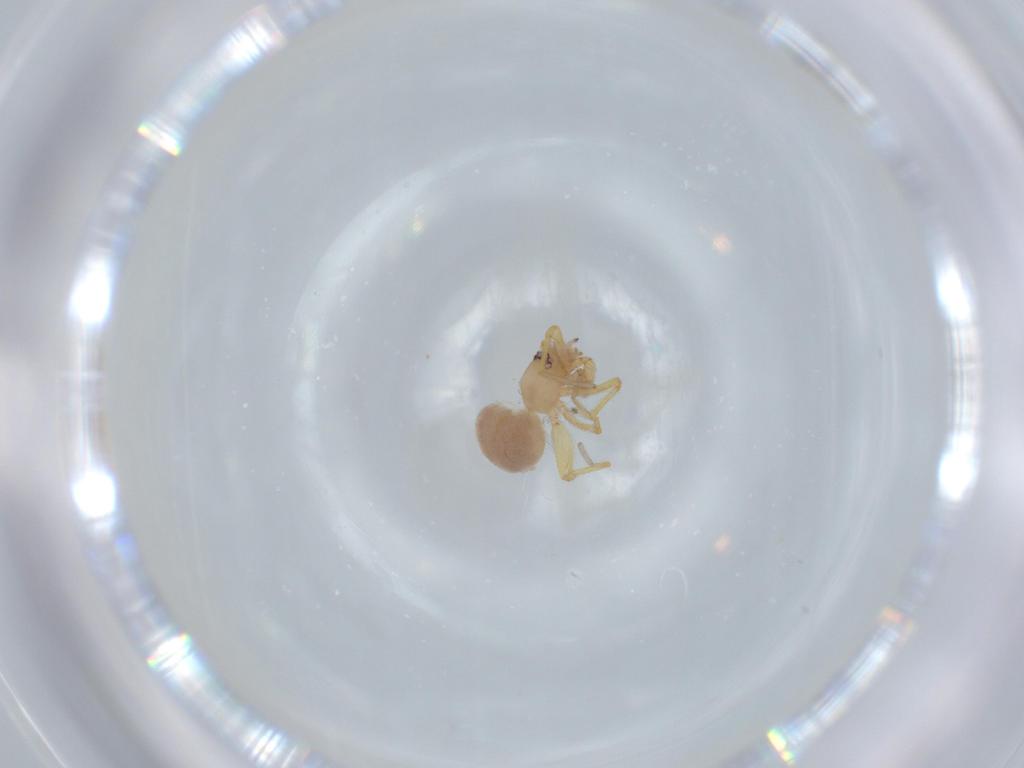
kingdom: Animalia
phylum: Arthropoda
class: Arachnida
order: Araneae
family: Oonopidae
